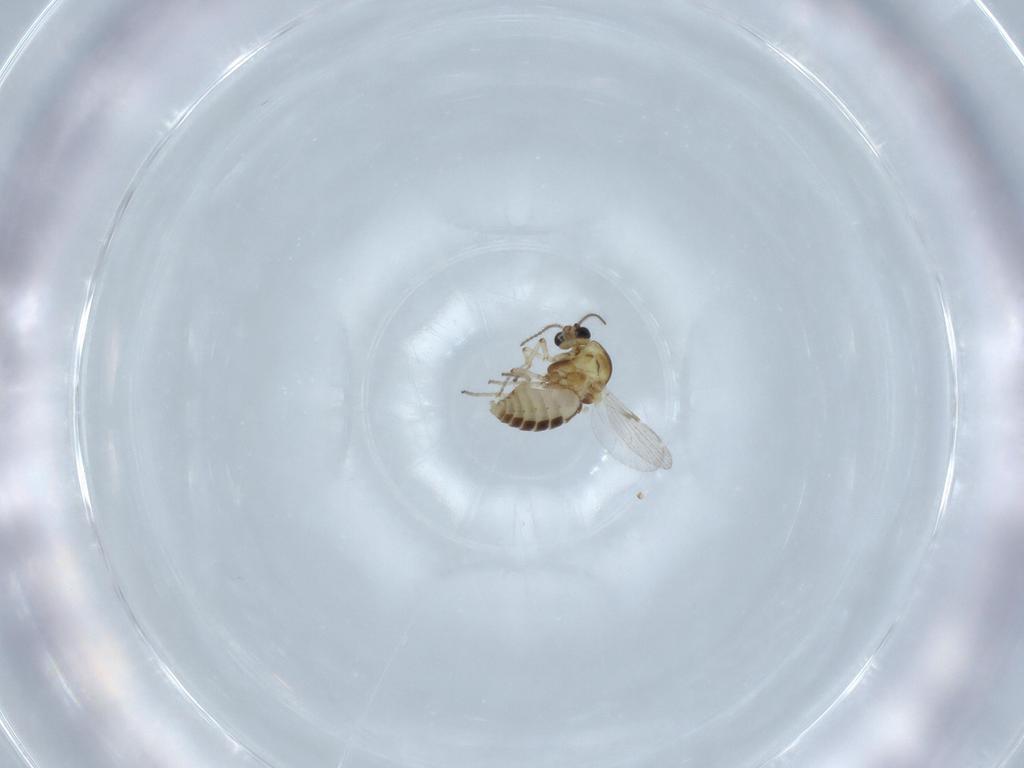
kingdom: Animalia
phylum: Arthropoda
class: Insecta
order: Diptera
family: Ceratopogonidae
